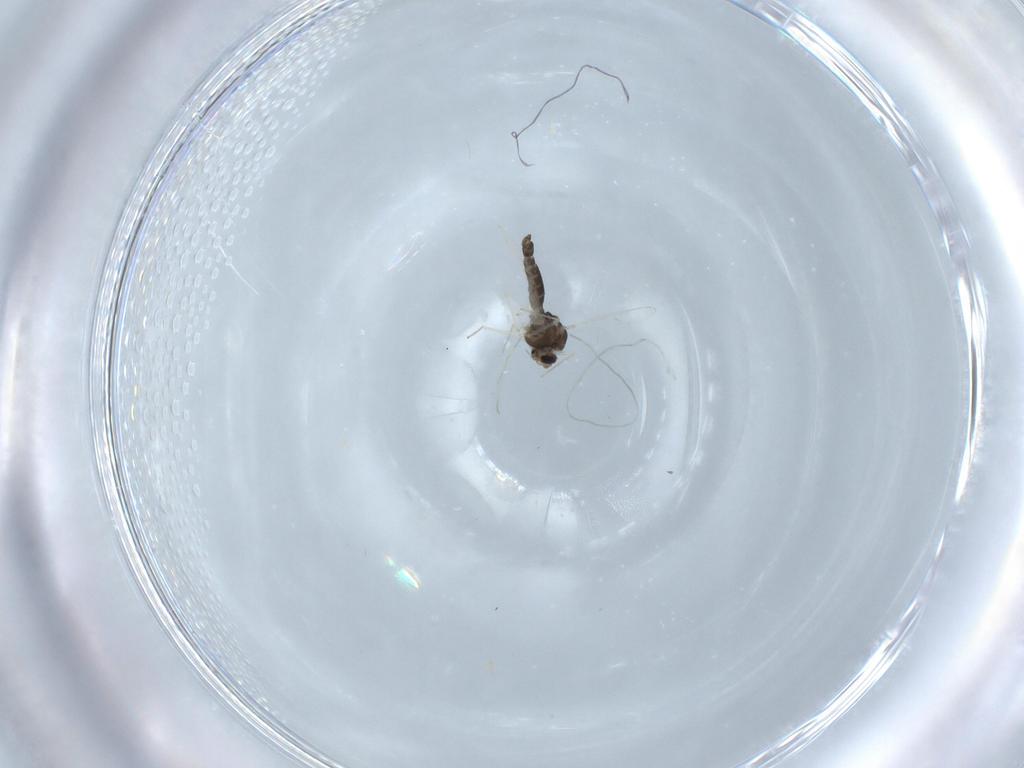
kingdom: Animalia
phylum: Arthropoda
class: Insecta
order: Diptera
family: Chironomidae
